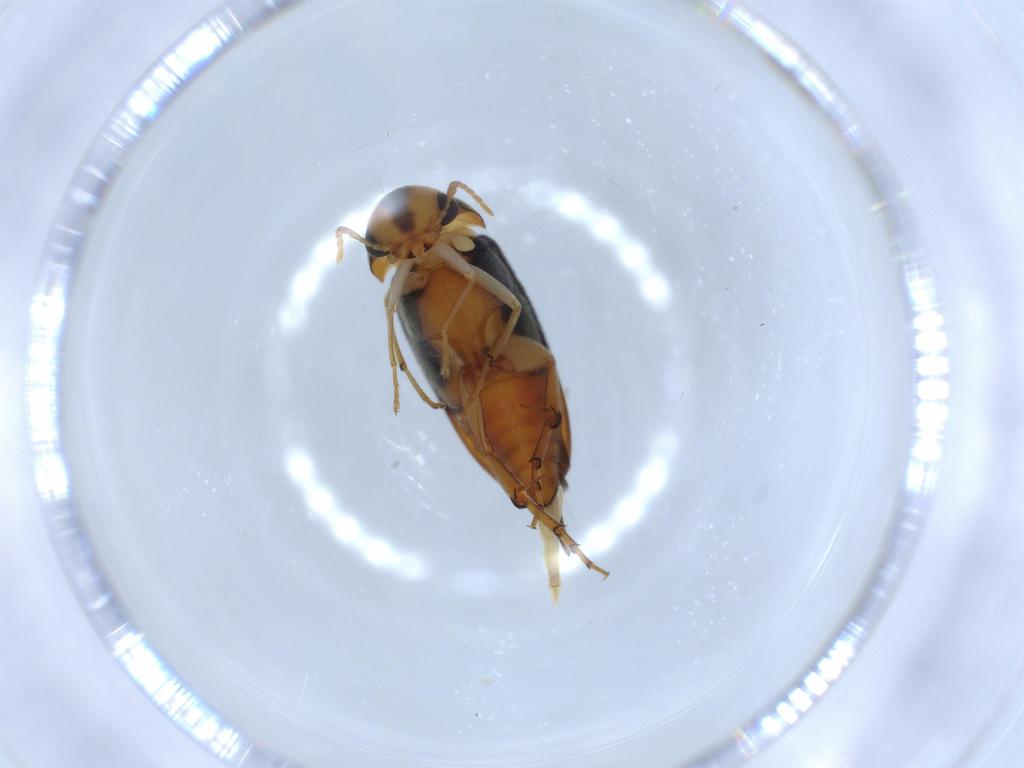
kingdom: Animalia
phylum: Arthropoda
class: Insecta
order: Coleoptera
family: Mordellidae
